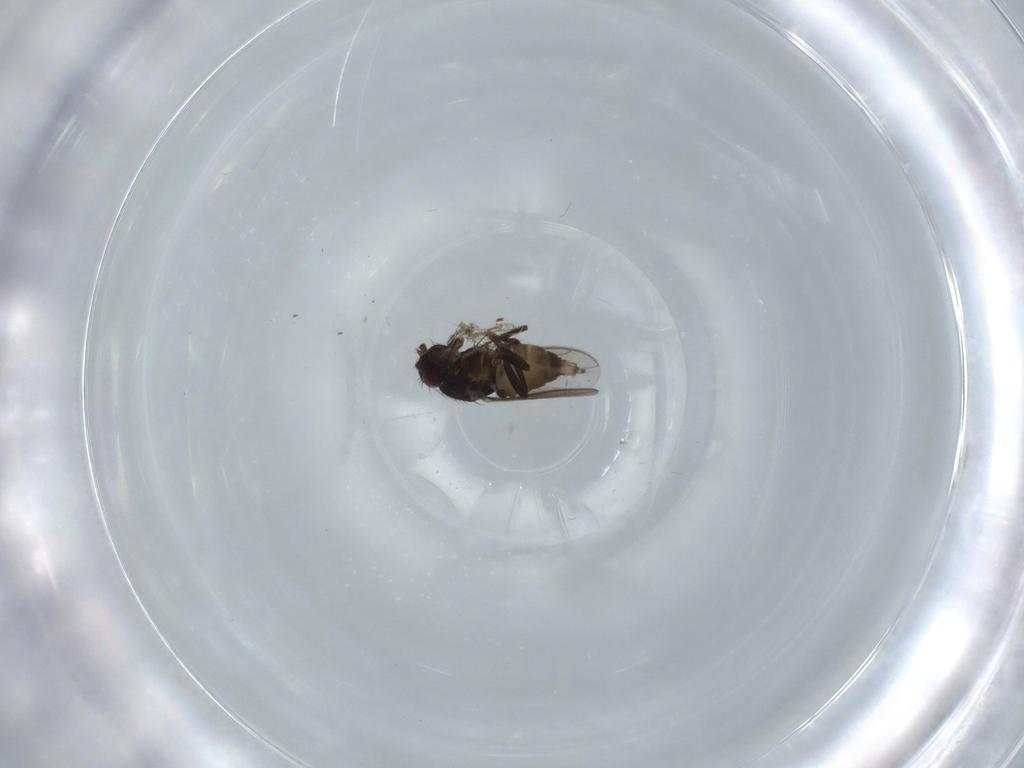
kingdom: Animalia
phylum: Arthropoda
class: Insecta
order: Diptera
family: Sphaeroceridae
